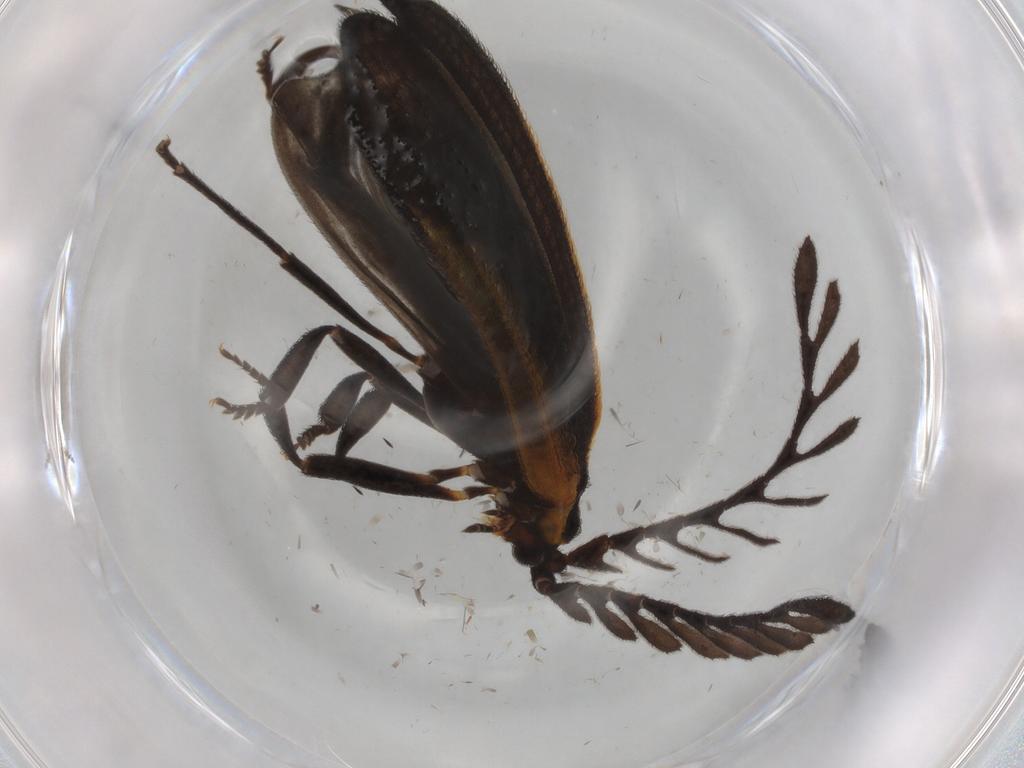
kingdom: Animalia
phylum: Arthropoda
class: Insecta
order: Coleoptera
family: Lycidae
